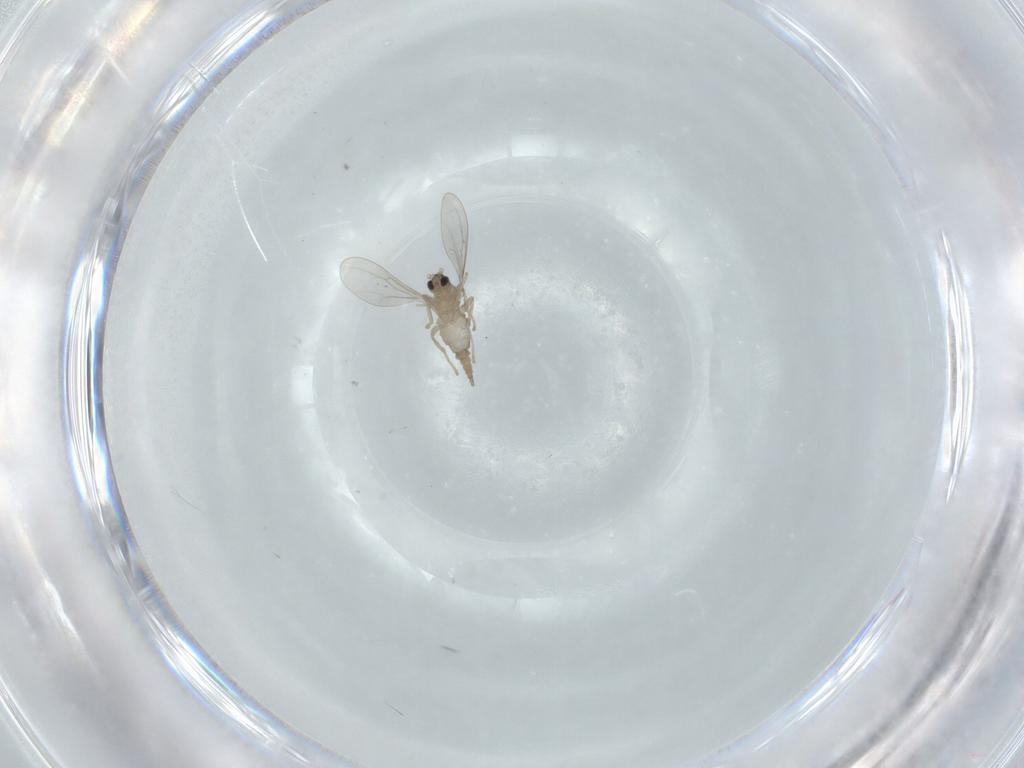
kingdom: Animalia
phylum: Arthropoda
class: Insecta
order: Diptera
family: Cecidomyiidae
